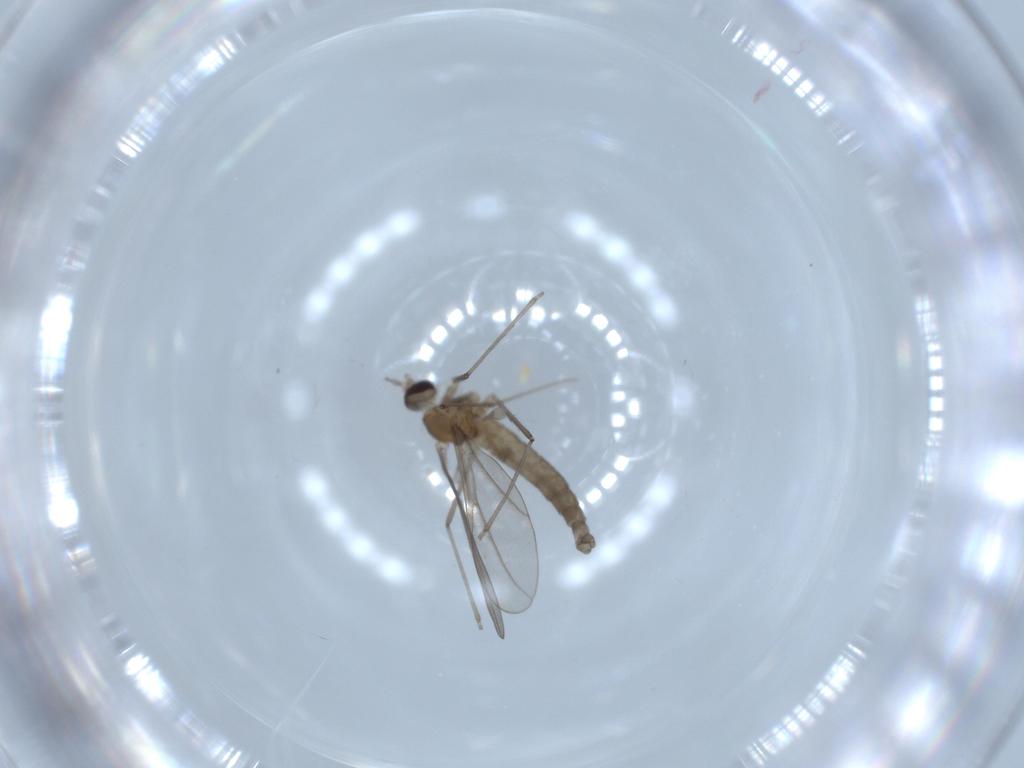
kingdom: Animalia
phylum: Arthropoda
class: Insecta
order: Diptera
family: Cecidomyiidae
